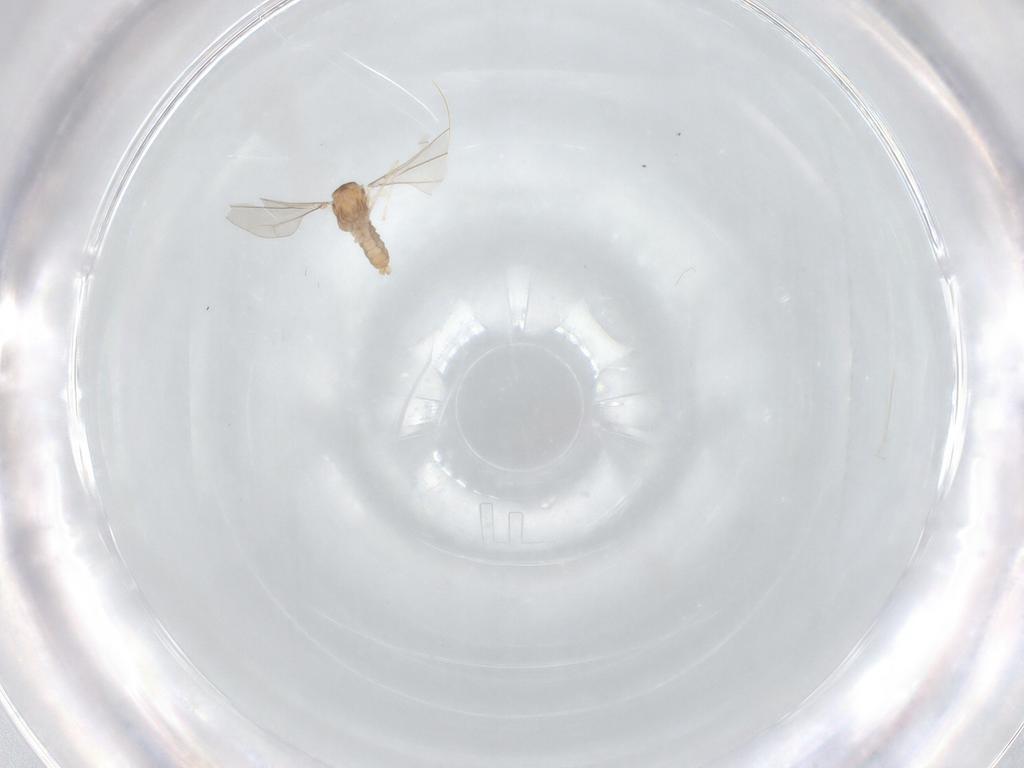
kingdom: Animalia
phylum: Arthropoda
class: Insecta
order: Diptera
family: Cecidomyiidae
